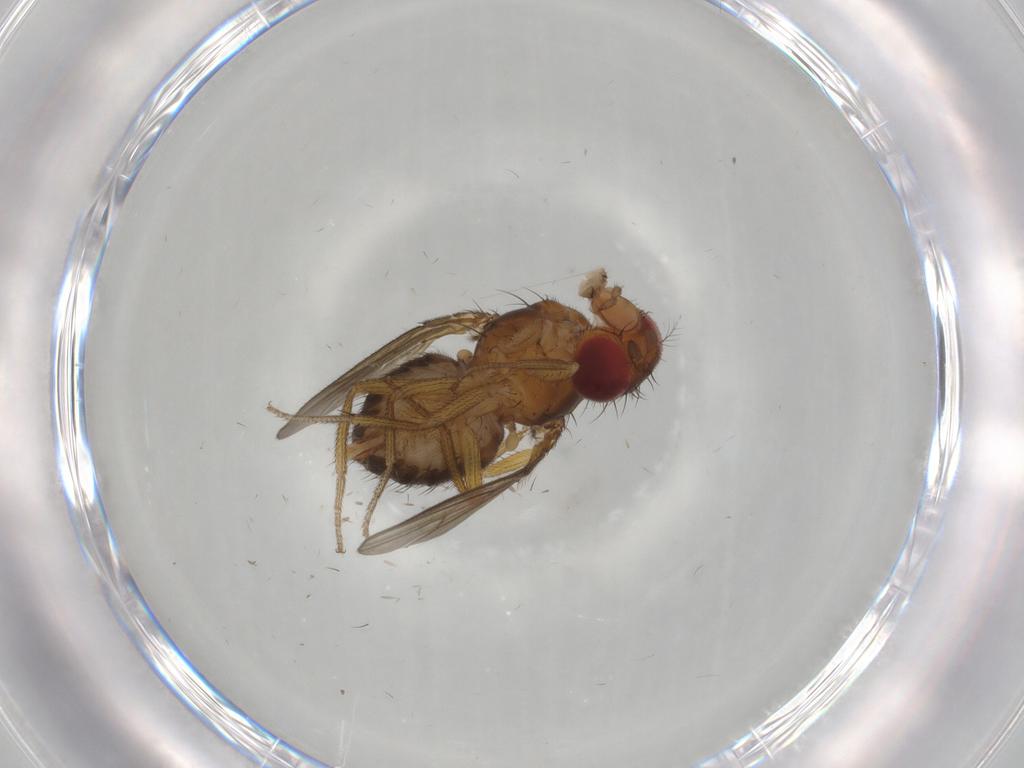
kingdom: Animalia
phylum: Arthropoda
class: Insecta
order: Diptera
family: Drosophilidae
